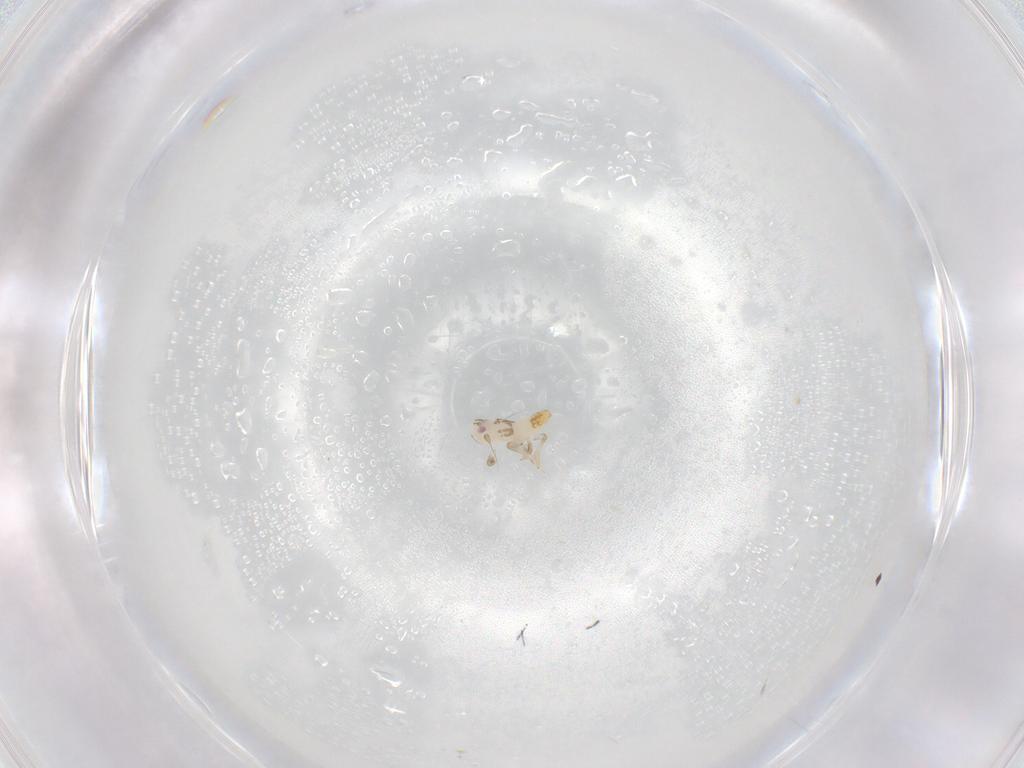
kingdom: Animalia
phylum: Arthropoda
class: Insecta
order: Hemiptera
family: Delphacidae
